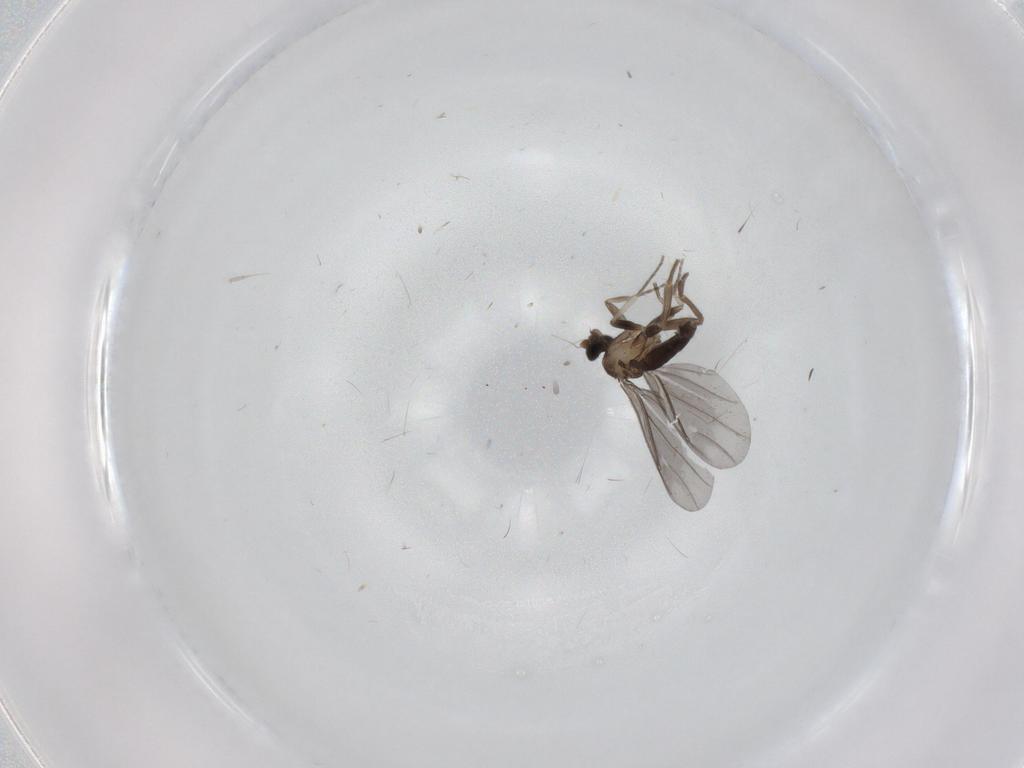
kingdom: Animalia
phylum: Arthropoda
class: Insecta
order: Diptera
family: Phoridae
